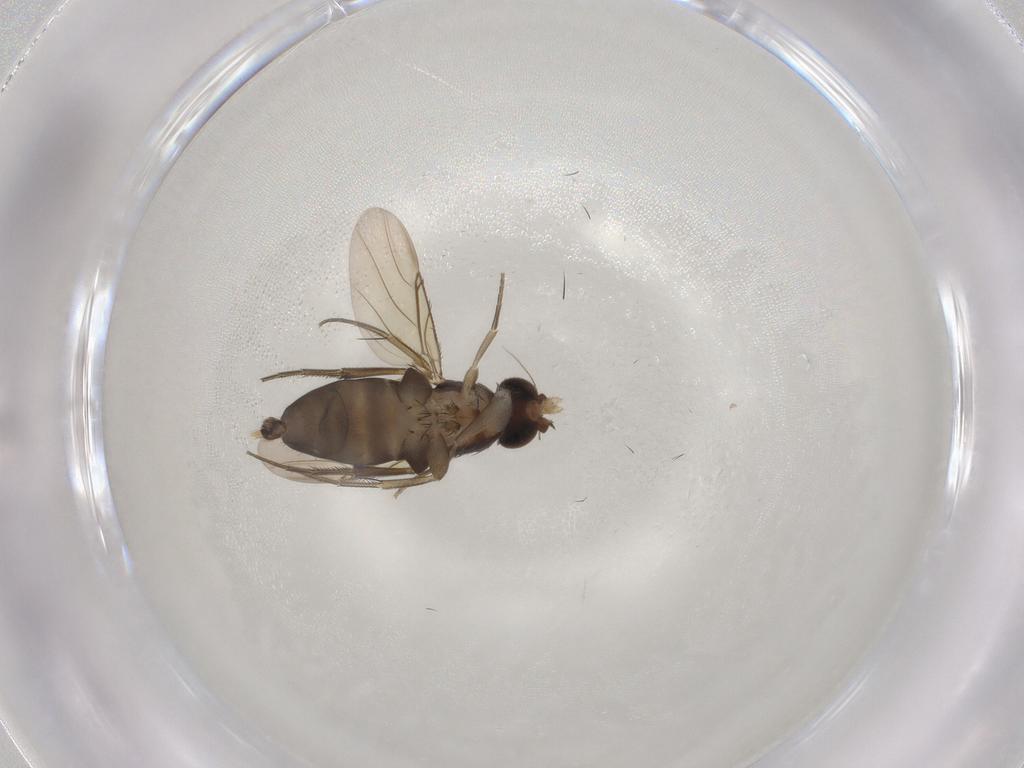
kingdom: Animalia
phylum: Arthropoda
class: Insecta
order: Diptera
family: Phoridae
